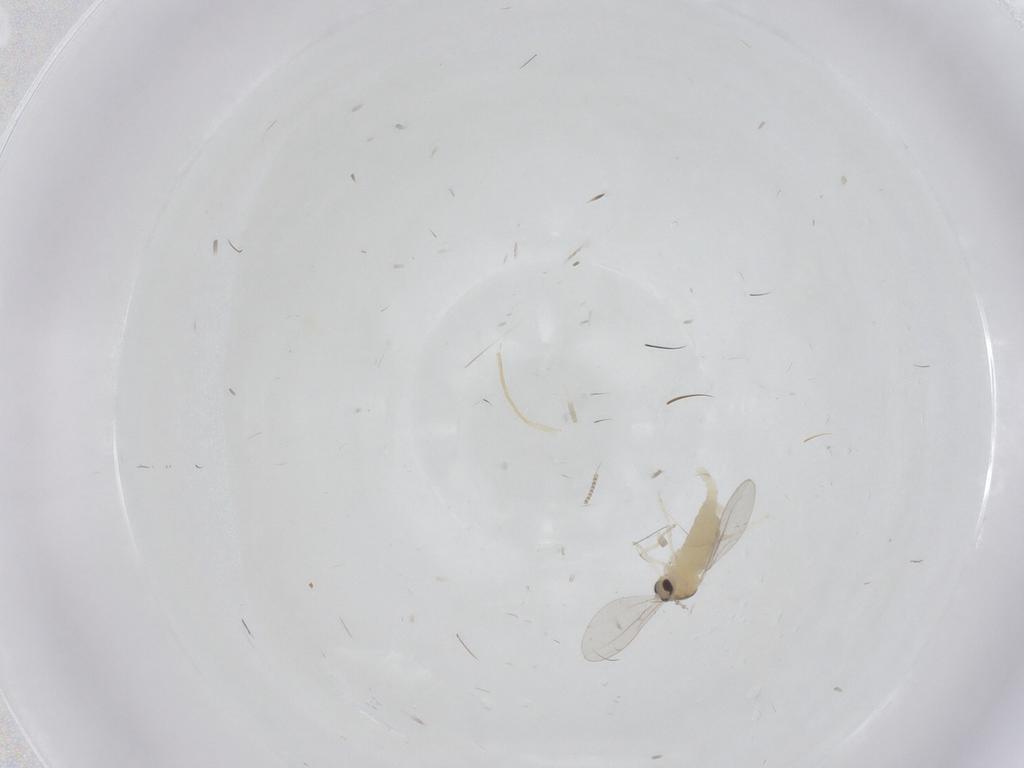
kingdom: Animalia
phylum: Arthropoda
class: Insecta
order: Diptera
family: Cecidomyiidae
